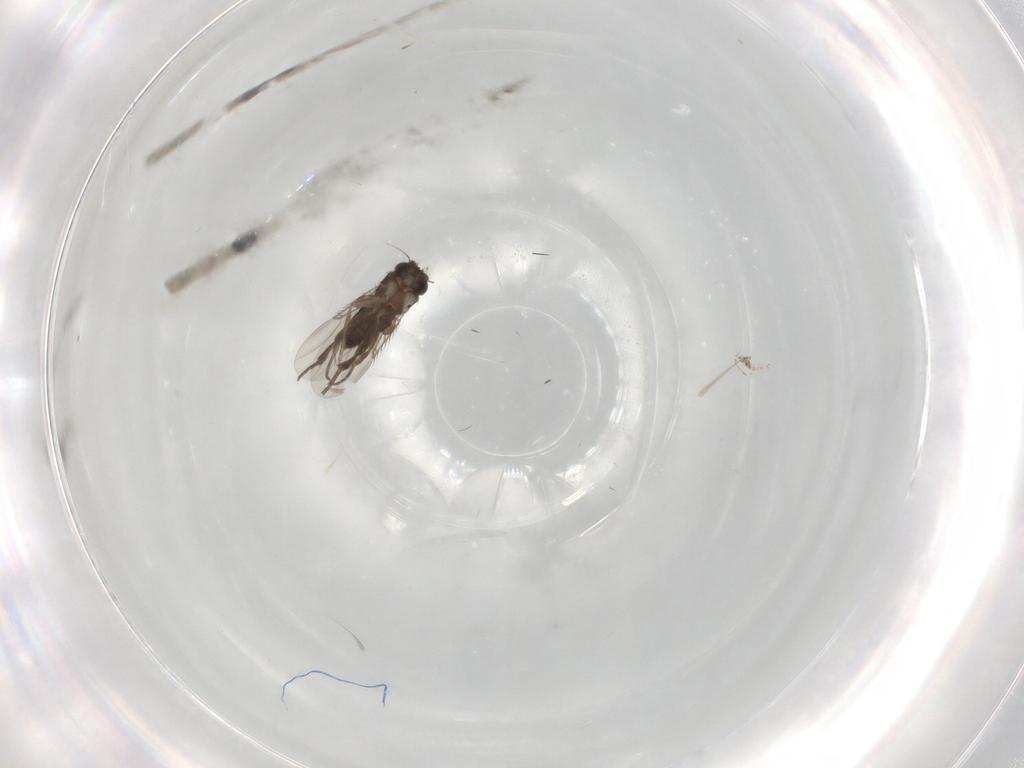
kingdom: Animalia
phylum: Arthropoda
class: Insecta
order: Diptera
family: Phoridae
